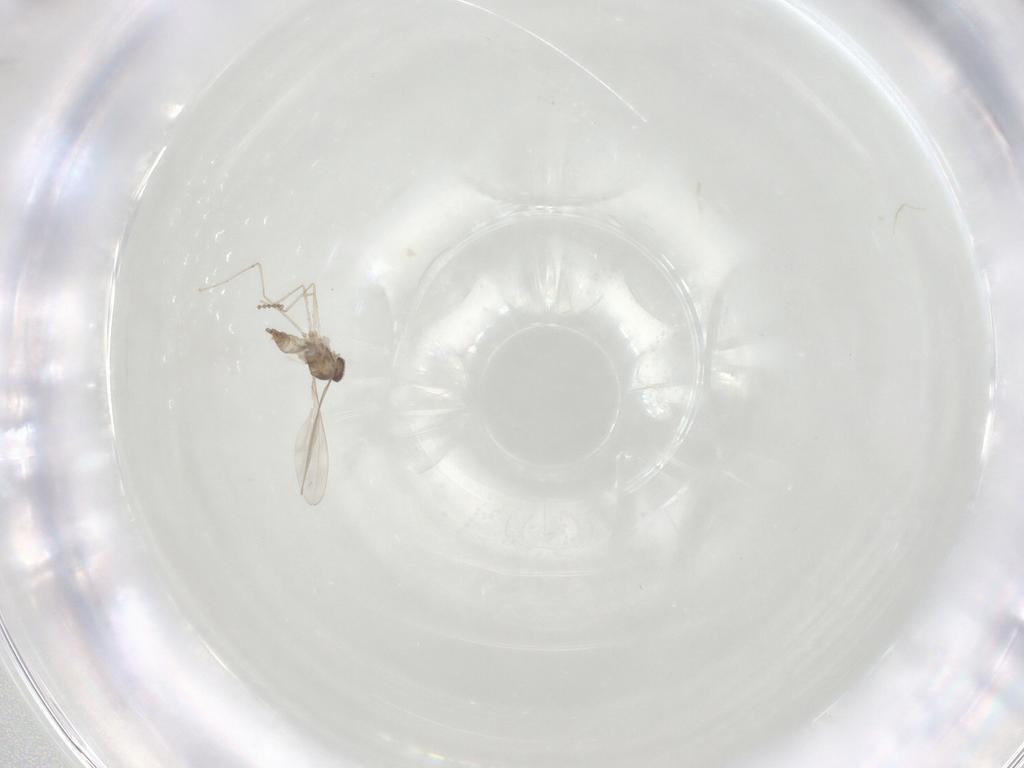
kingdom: Animalia
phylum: Arthropoda
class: Insecta
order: Diptera
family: Cecidomyiidae
